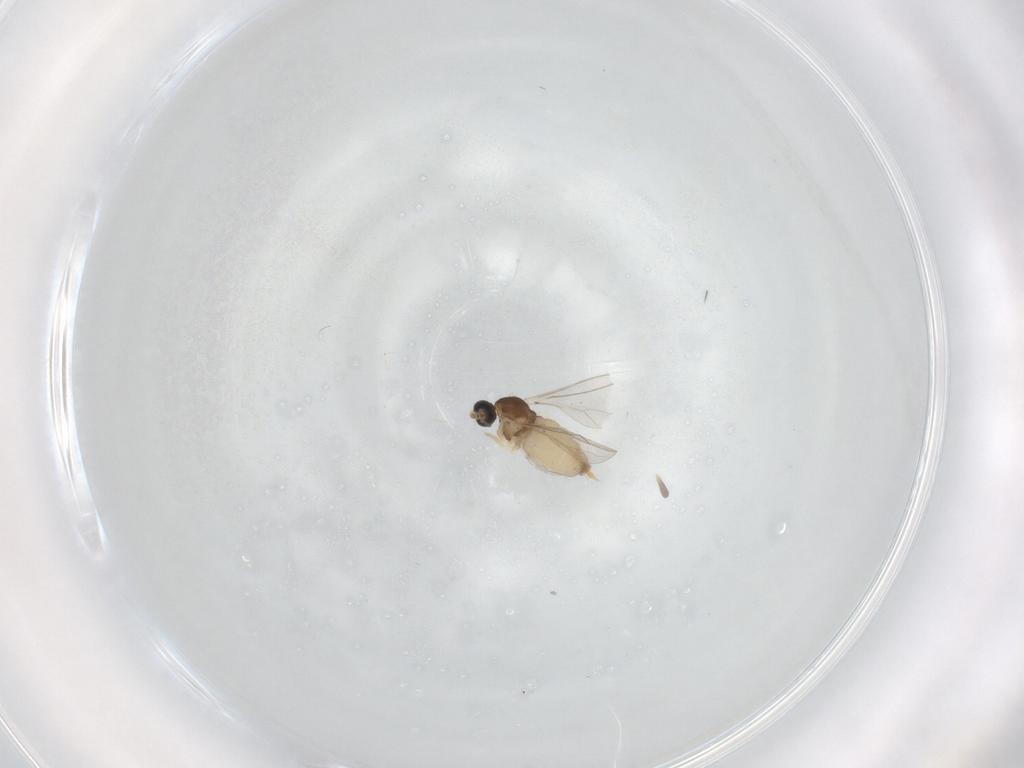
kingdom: Animalia
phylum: Arthropoda
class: Insecta
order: Diptera
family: Cecidomyiidae
